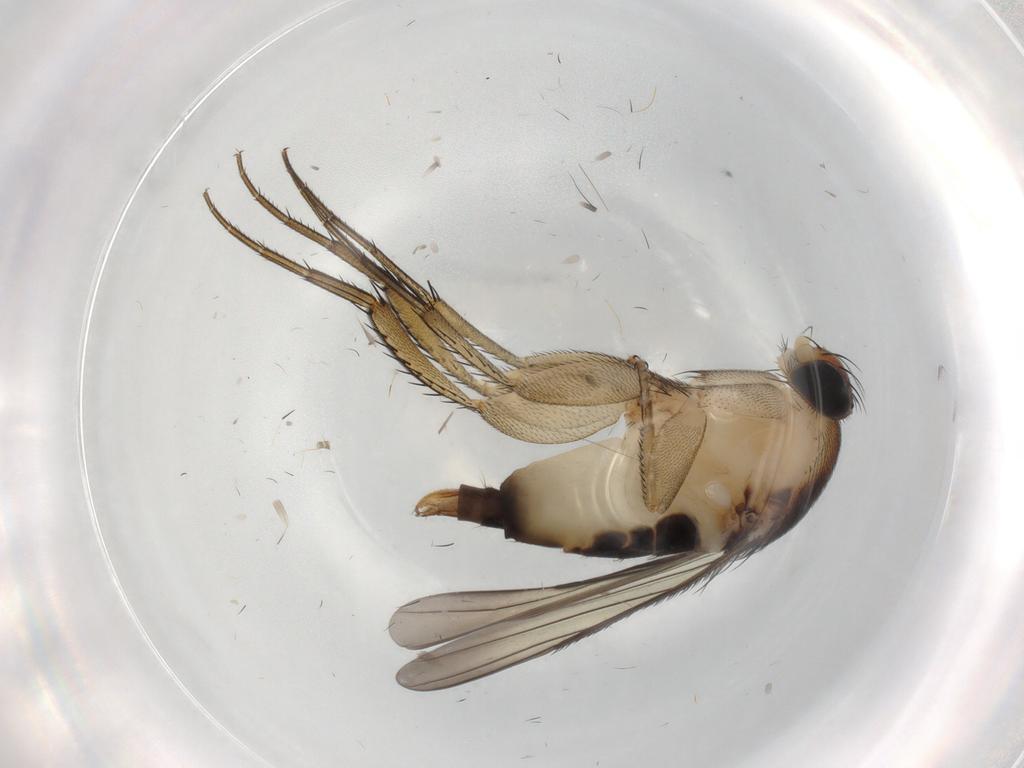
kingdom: Animalia
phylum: Arthropoda
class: Insecta
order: Diptera
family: Phoridae
